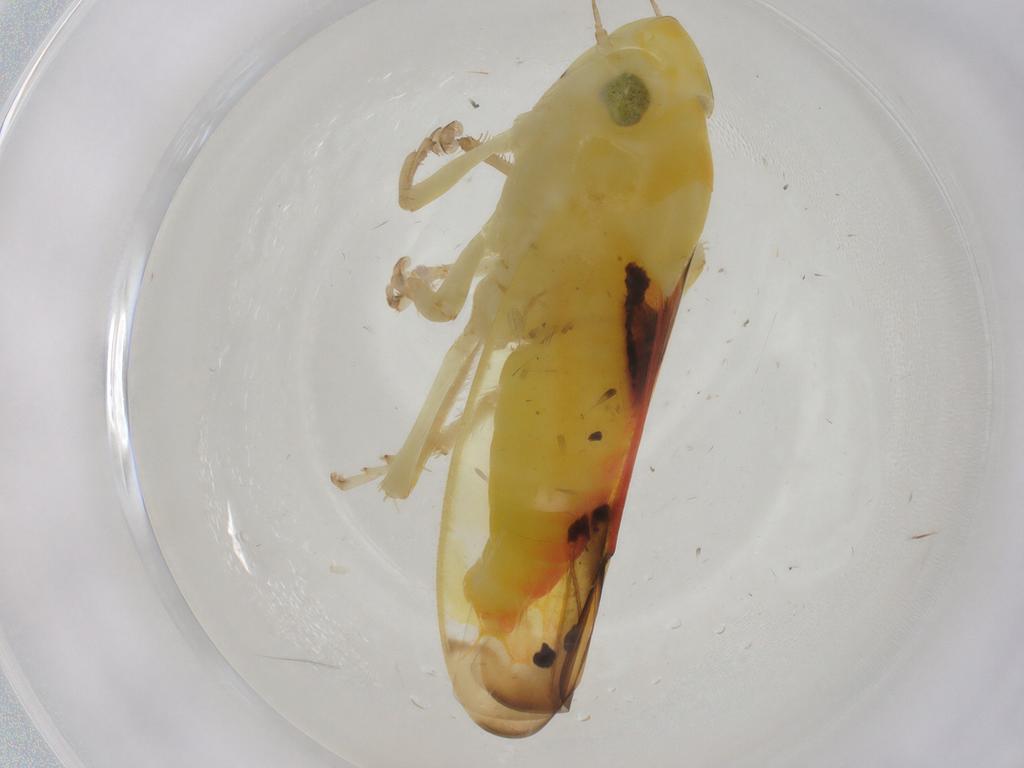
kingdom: Animalia
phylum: Arthropoda
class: Insecta
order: Hemiptera
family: Cicadellidae
